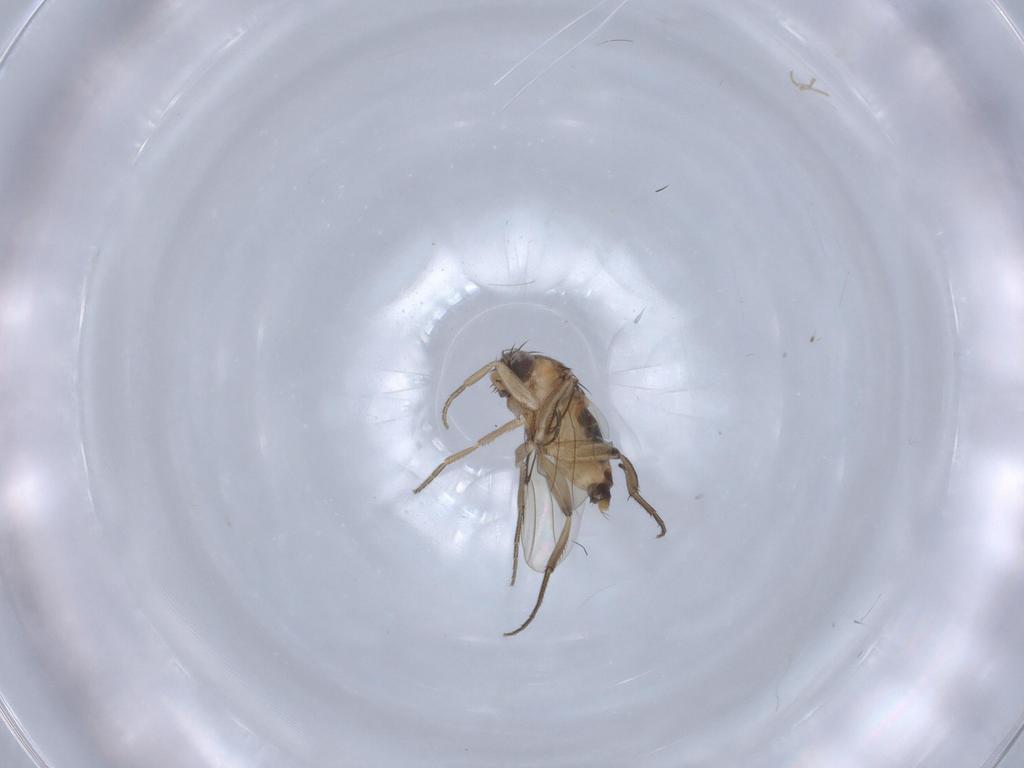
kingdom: Animalia
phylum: Arthropoda
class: Insecta
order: Diptera
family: Phoridae
